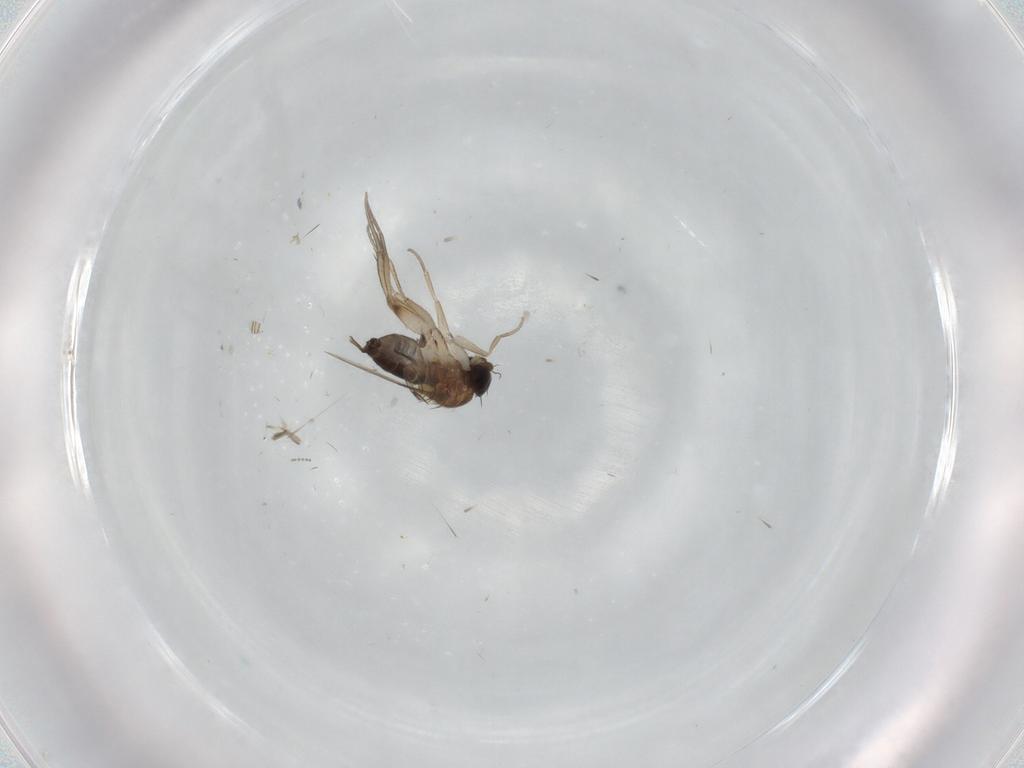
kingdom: Animalia
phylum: Arthropoda
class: Insecta
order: Diptera
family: Phoridae
